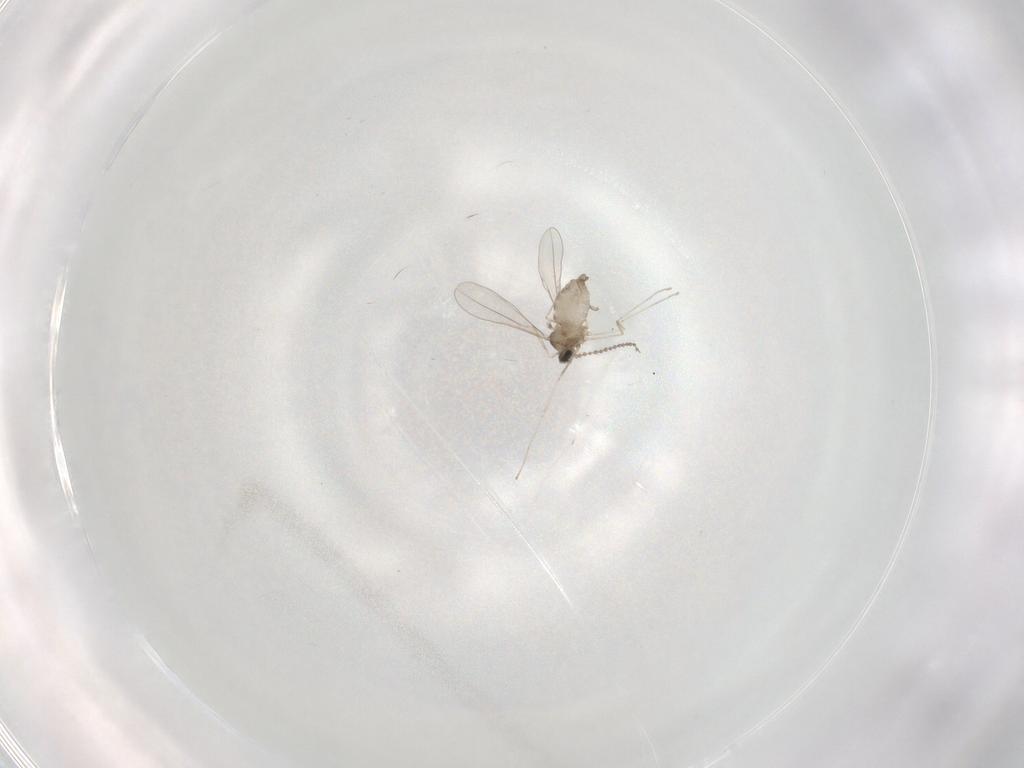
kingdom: Animalia
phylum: Arthropoda
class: Insecta
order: Diptera
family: Cecidomyiidae
